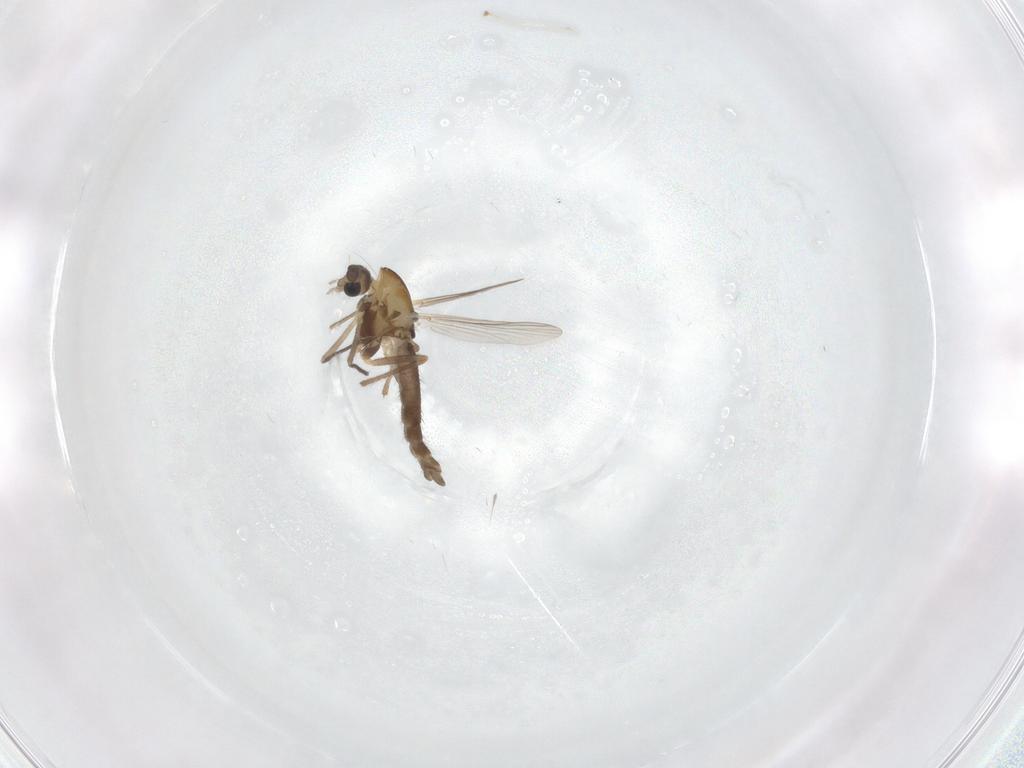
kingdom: Animalia
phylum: Arthropoda
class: Insecta
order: Diptera
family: Chironomidae
